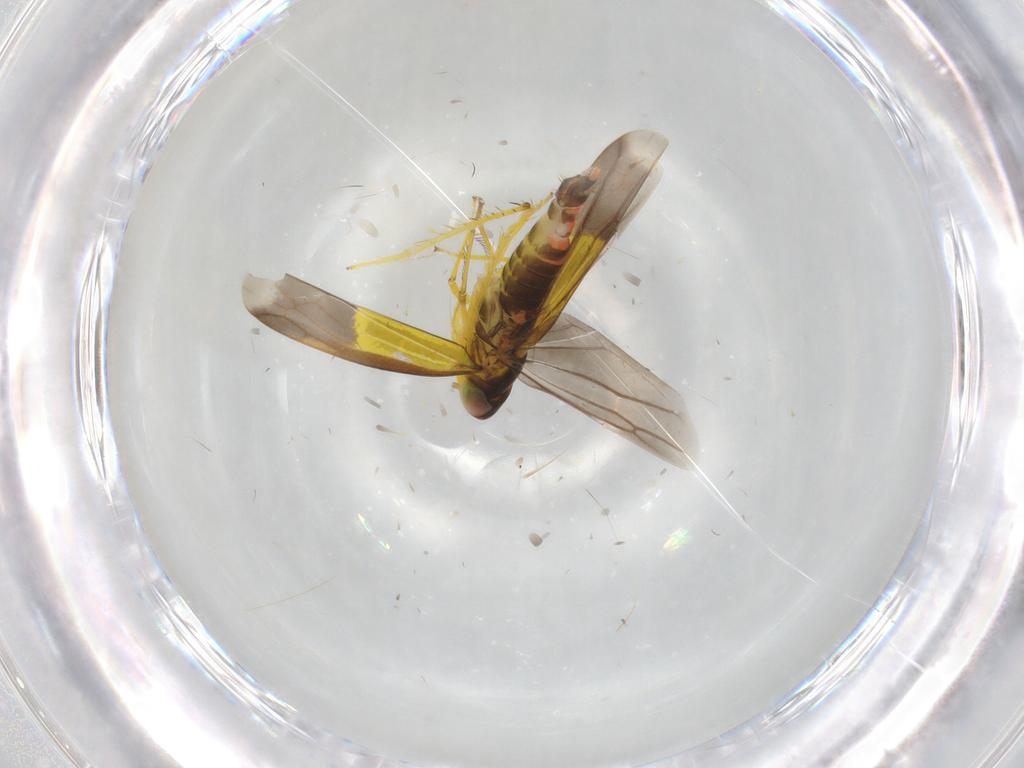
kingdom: Animalia
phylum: Arthropoda
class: Insecta
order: Hemiptera
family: Cicadellidae
